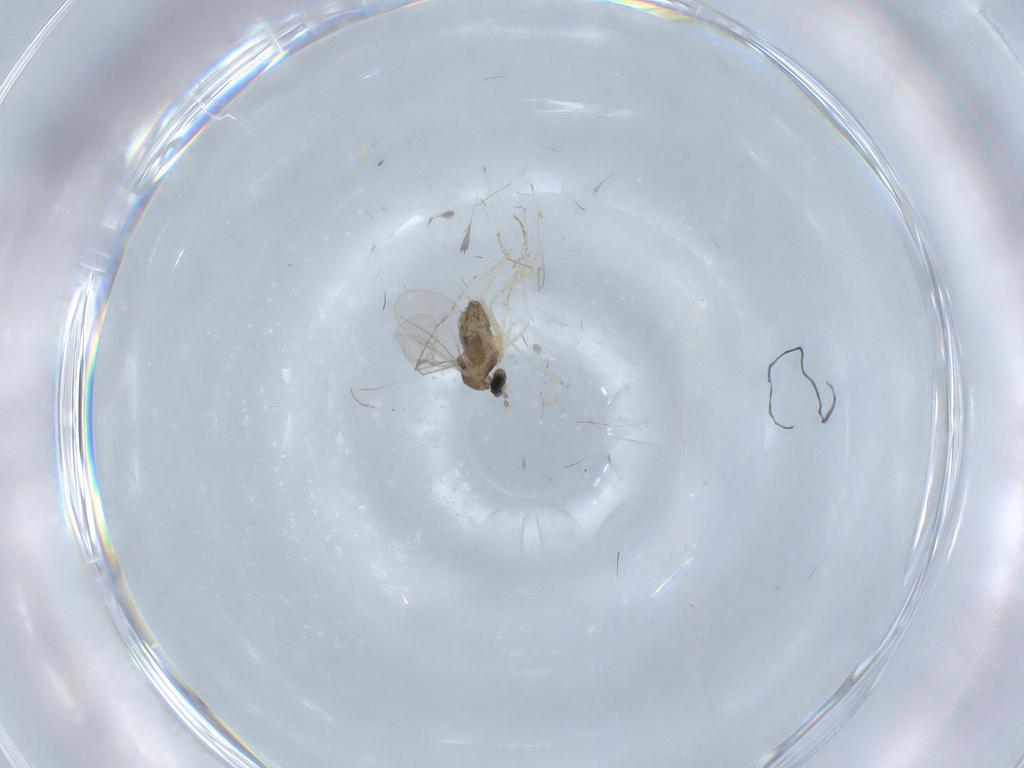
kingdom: Animalia
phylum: Arthropoda
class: Insecta
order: Diptera
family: Cecidomyiidae
